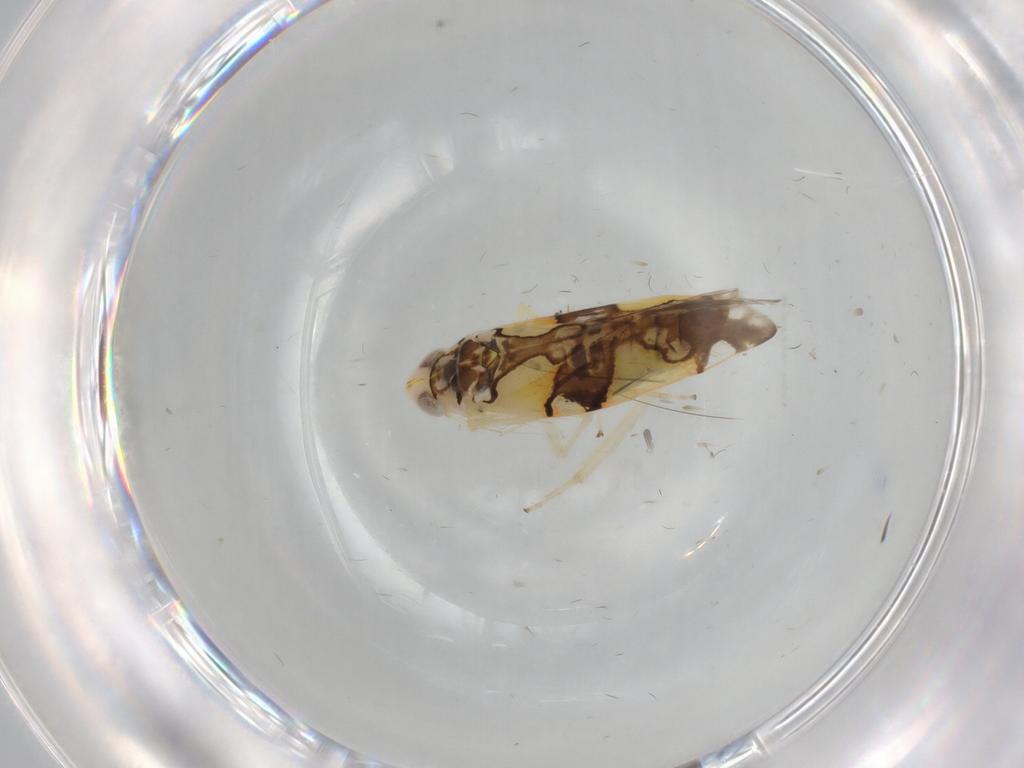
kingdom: Animalia
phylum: Arthropoda
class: Insecta
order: Hemiptera
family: Cicadellidae
